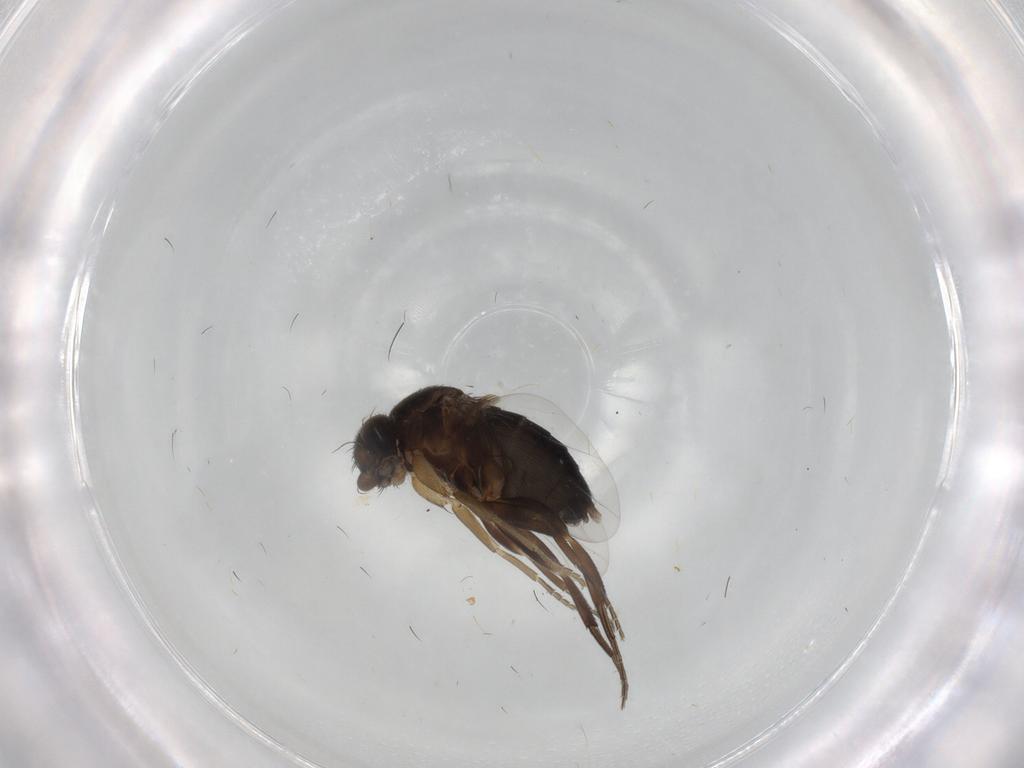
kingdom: Animalia
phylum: Arthropoda
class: Insecta
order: Diptera
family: Phoridae
